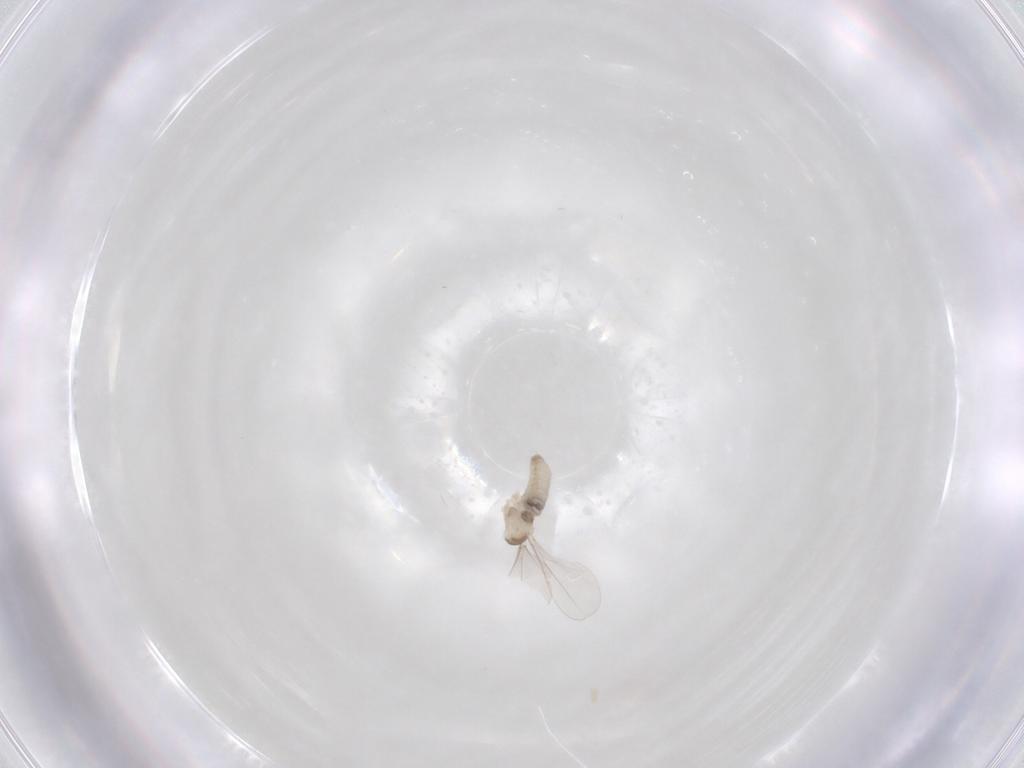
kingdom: Animalia
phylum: Arthropoda
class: Insecta
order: Diptera
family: Cecidomyiidae
